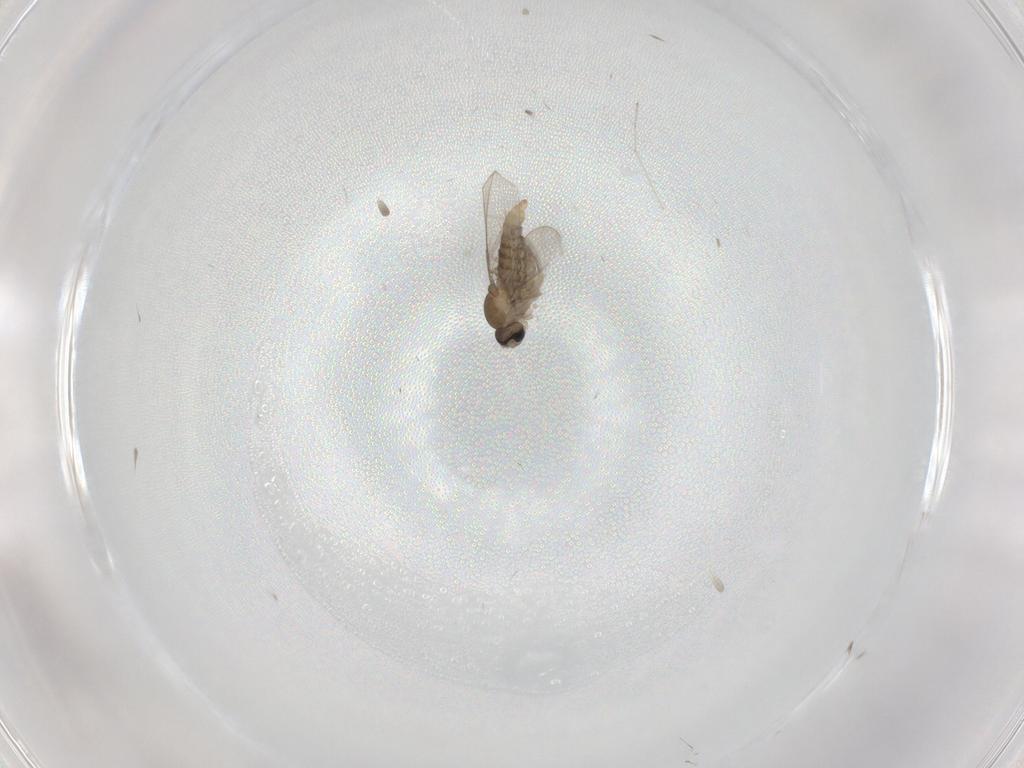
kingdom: Animalia
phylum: Arthropoda
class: Insecta
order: Diptera
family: Cecidomyiidae
